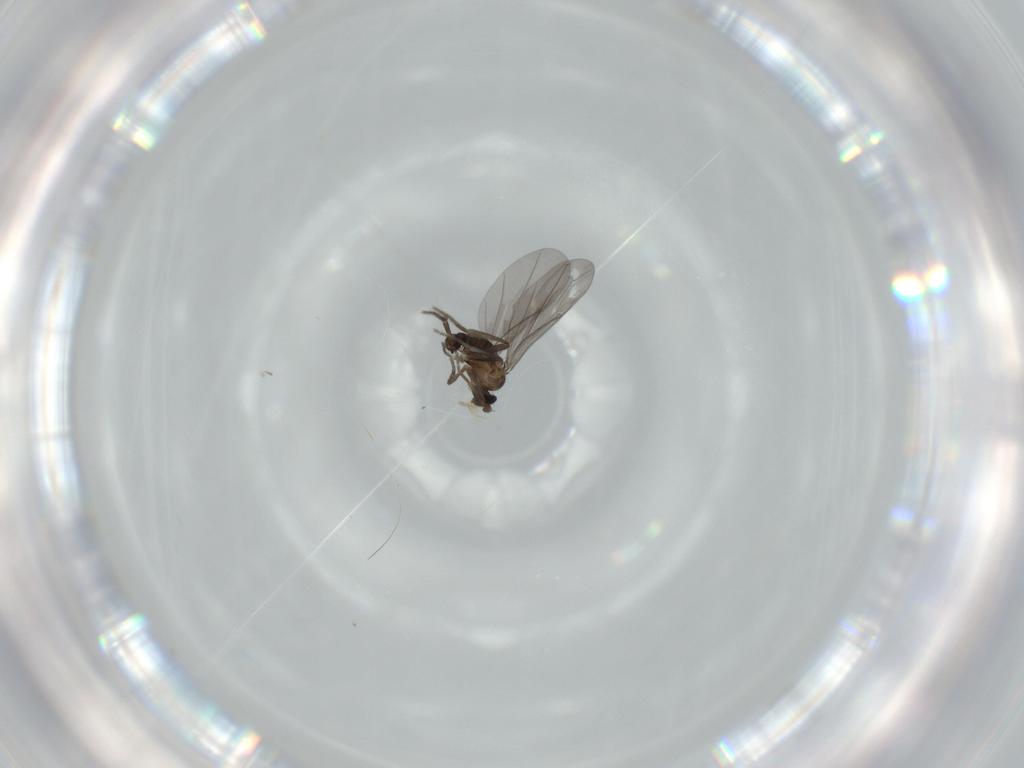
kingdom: Animalia
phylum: Arthropoda
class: Insecta
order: Diptera
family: Phoridae
